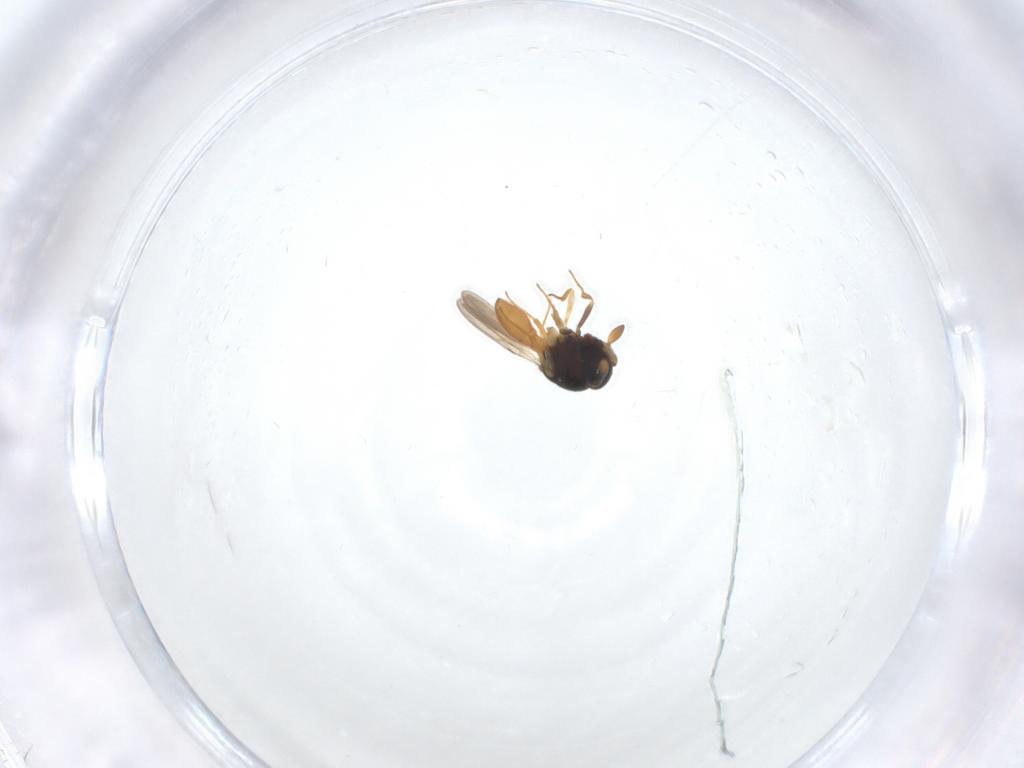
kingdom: Animalia
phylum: Arthropoda
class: Insecta
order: Hymenoptera
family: Scelionidae
